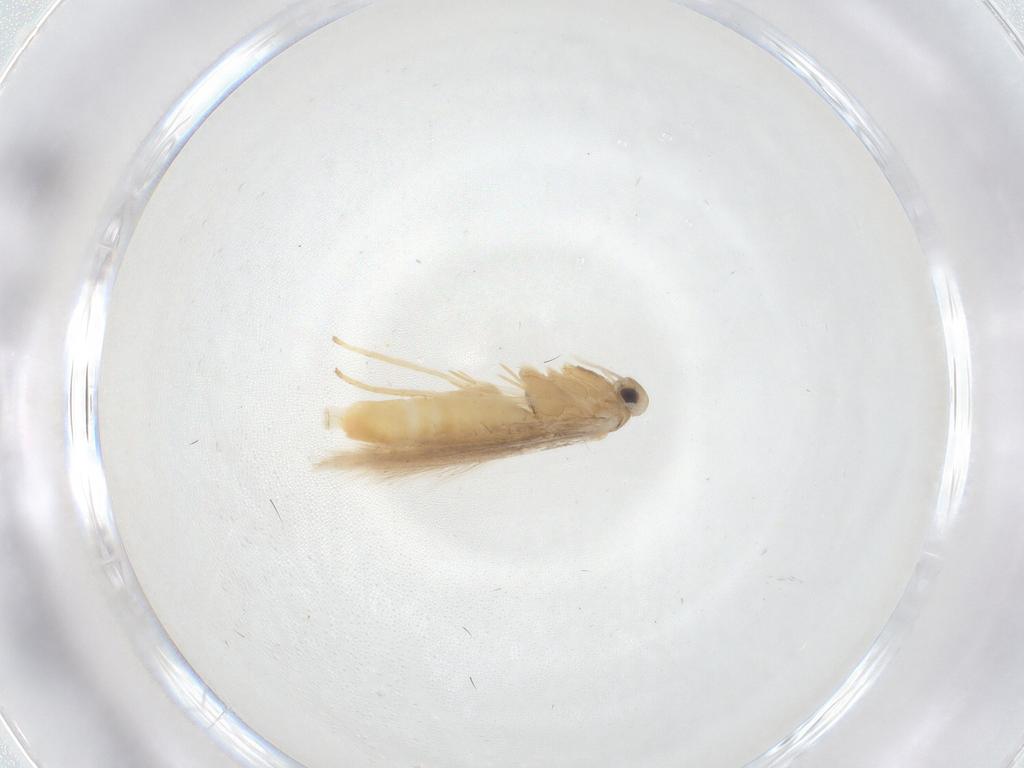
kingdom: Animalia
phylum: Arthropoda
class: Insecta
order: Lepidoptera
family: Gracillariidae
